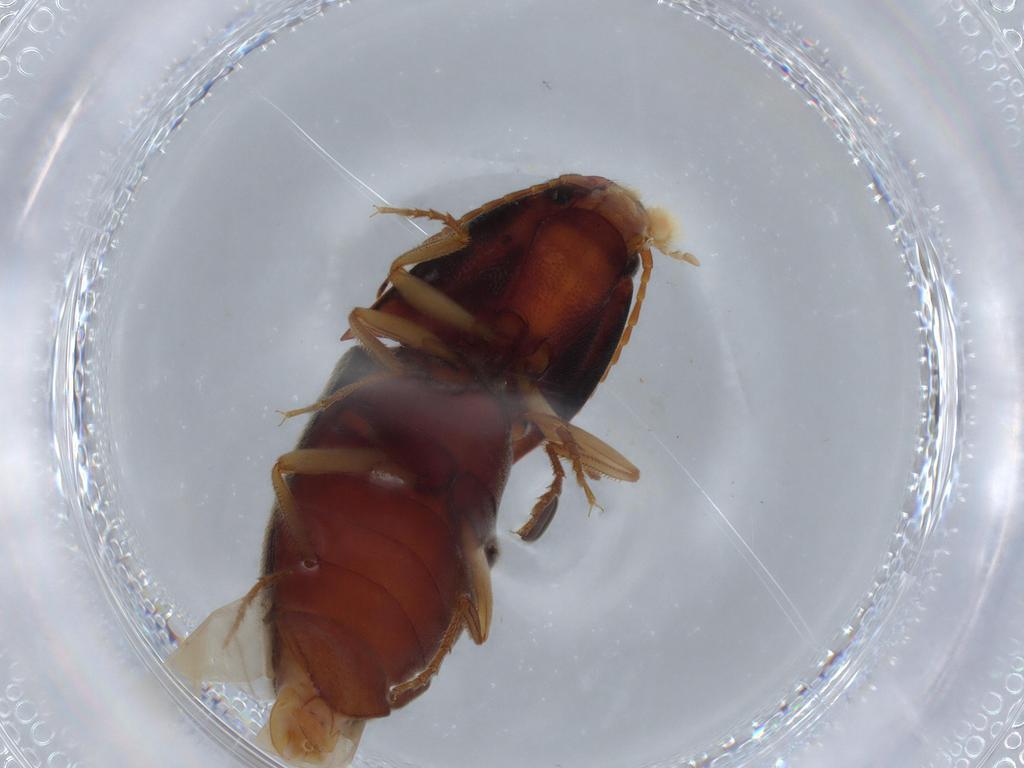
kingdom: Animalia
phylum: Arthropoda
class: Insecta
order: Coleoptera
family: Elateridae
